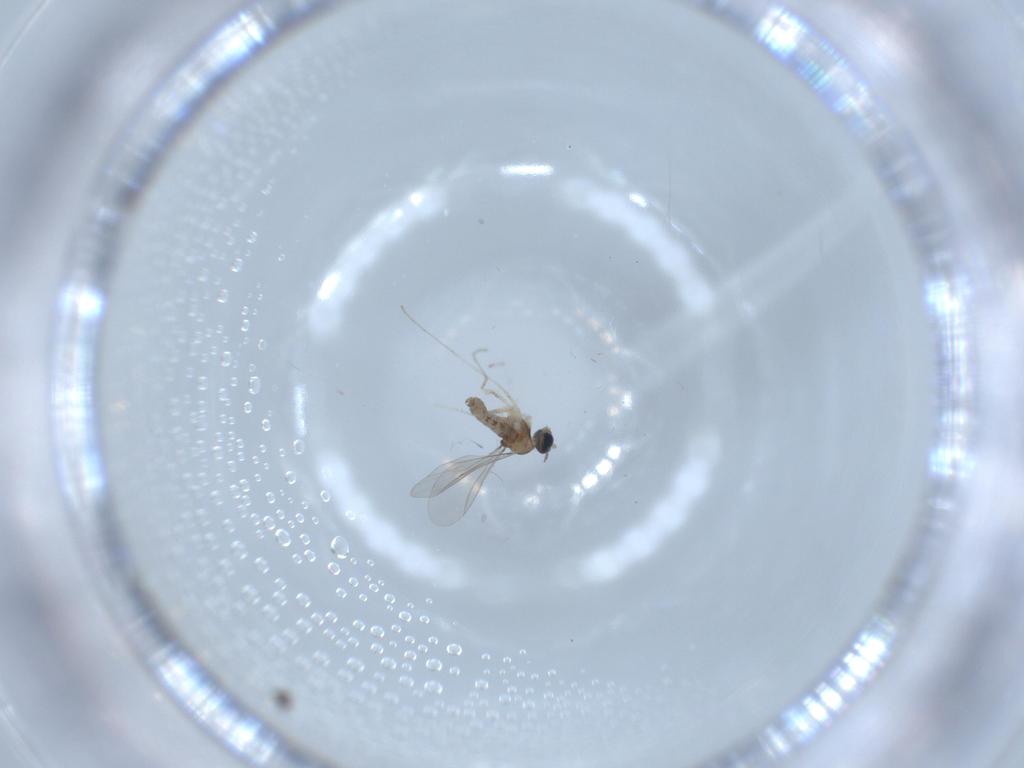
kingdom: Animalia
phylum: Arthropoda
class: Insecta
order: Diptera
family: Cecidomyiidae
